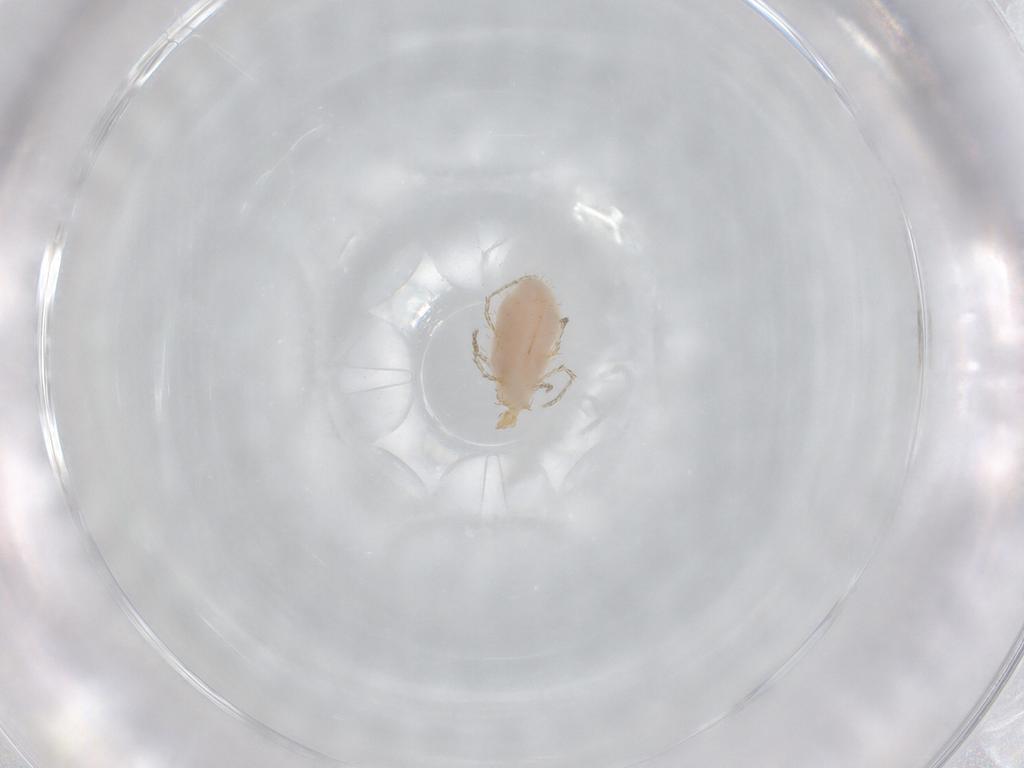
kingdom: Animalia
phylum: Arthropoda
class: Arachnida
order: Trombidiformes
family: Erythraeidae
